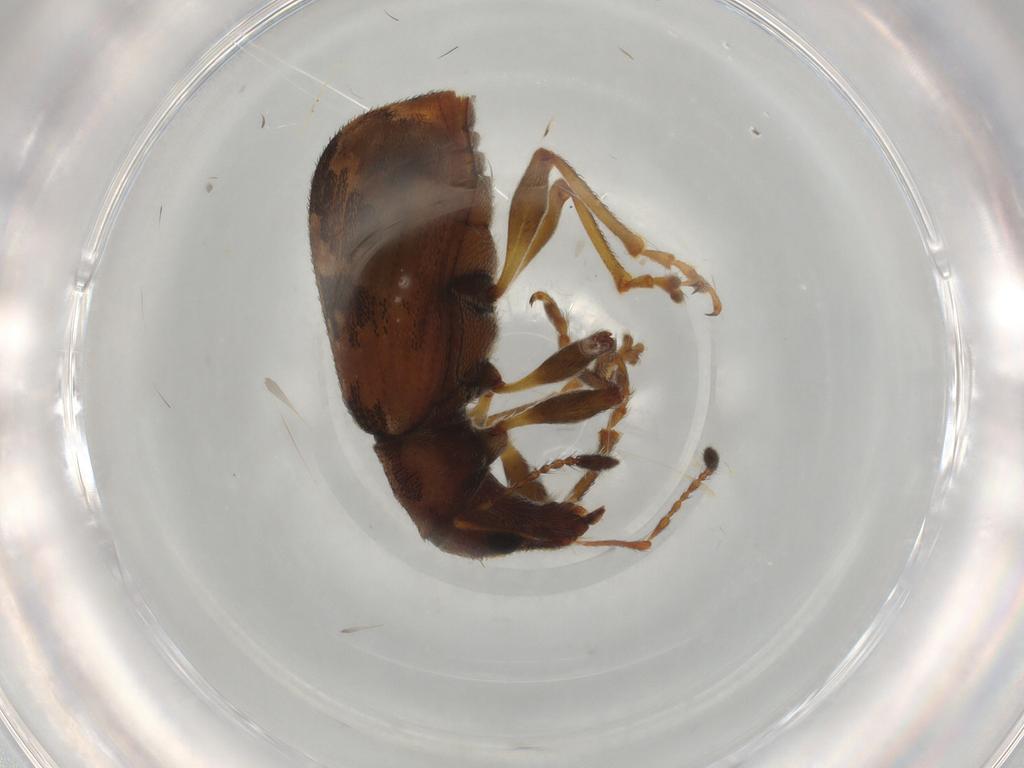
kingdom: Animalia
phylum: Arthropoda
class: Insecta
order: Coleoptera
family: Curculionidae
